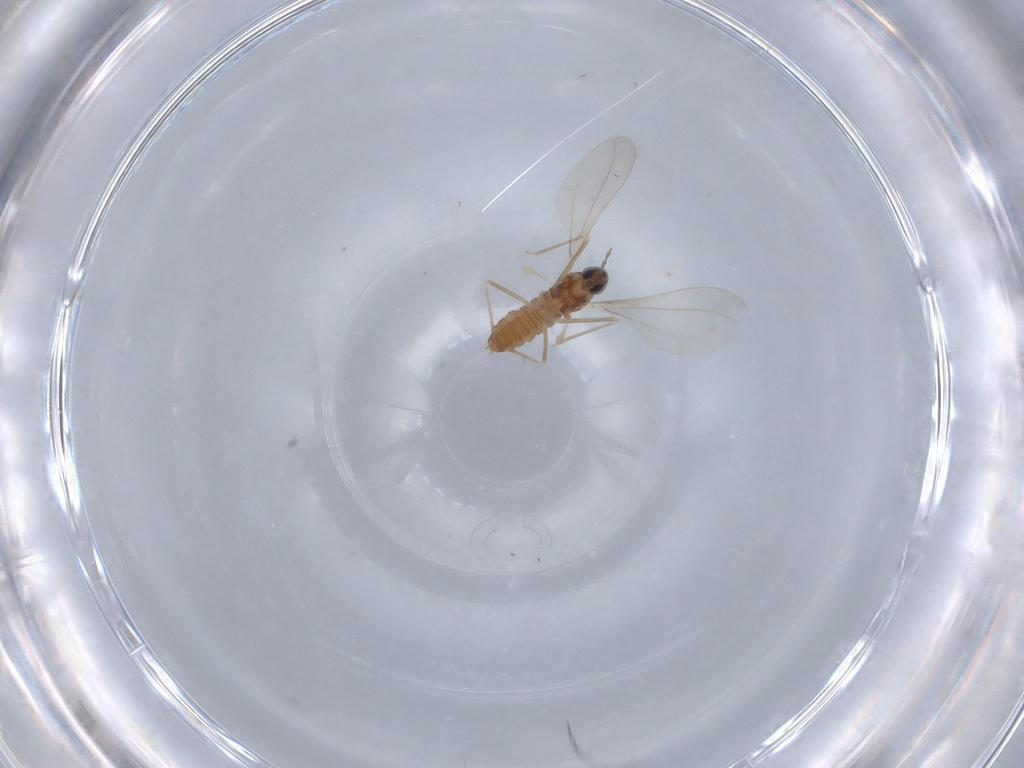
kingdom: Animalia
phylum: Arthropoda
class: Insecta
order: Diptera
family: Cecidomyiidae
